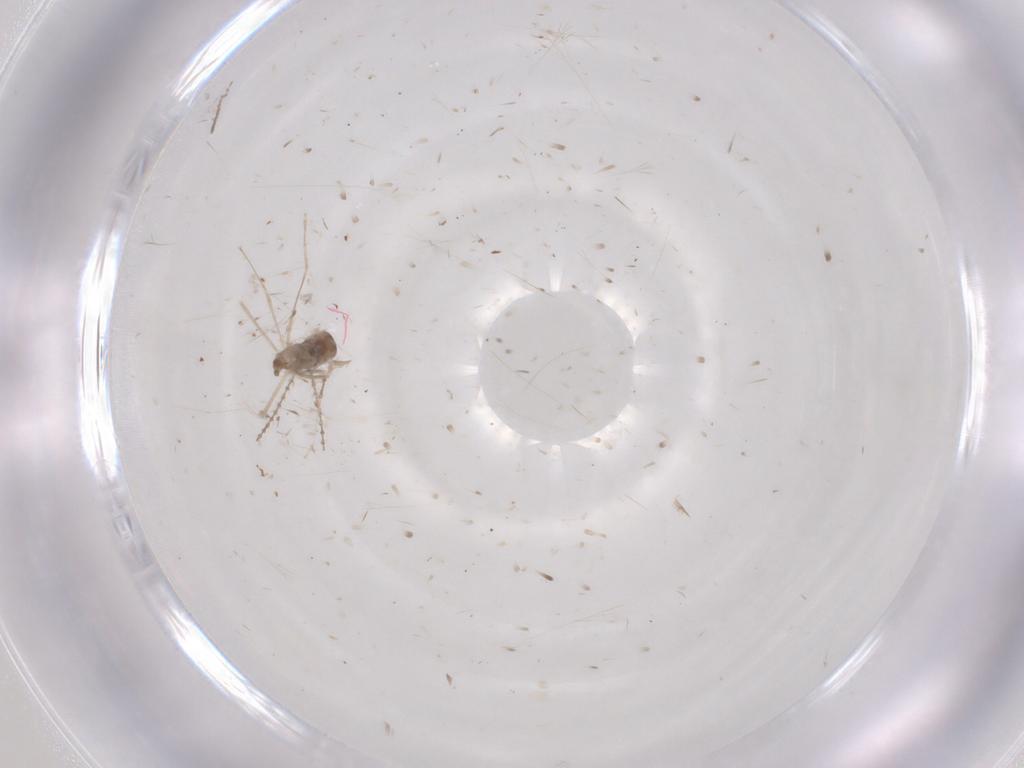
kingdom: Animalia
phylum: Arthropoda
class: Insecta
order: Diptera
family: Cecidomyiidae
